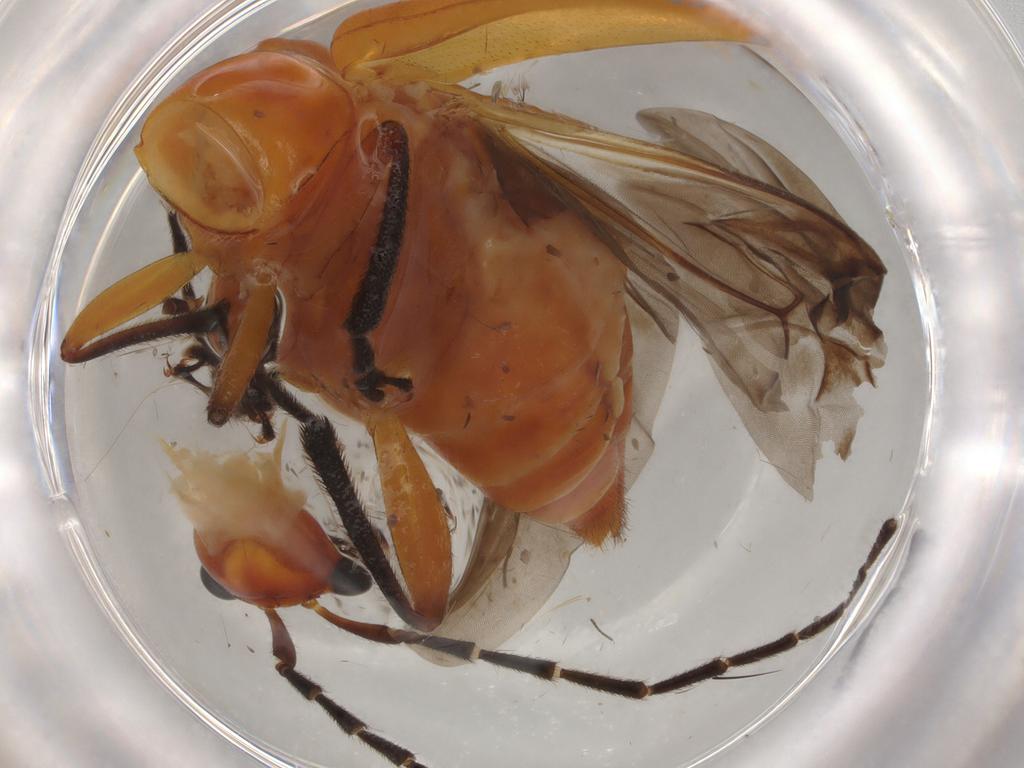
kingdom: Animalia
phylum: Arthropoda
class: Insecta
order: Coleoptera
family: Chrysomelidae
